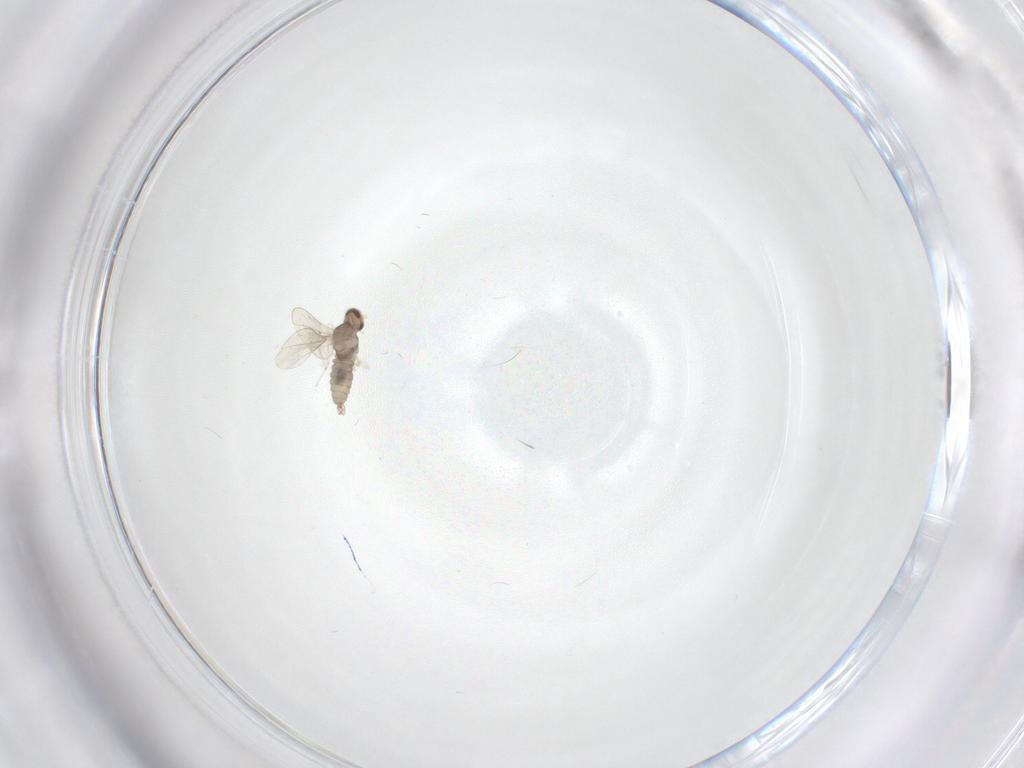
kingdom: Animalia
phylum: Arthropoda
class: Insecta
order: Diptera
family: Cecidomyiidae
